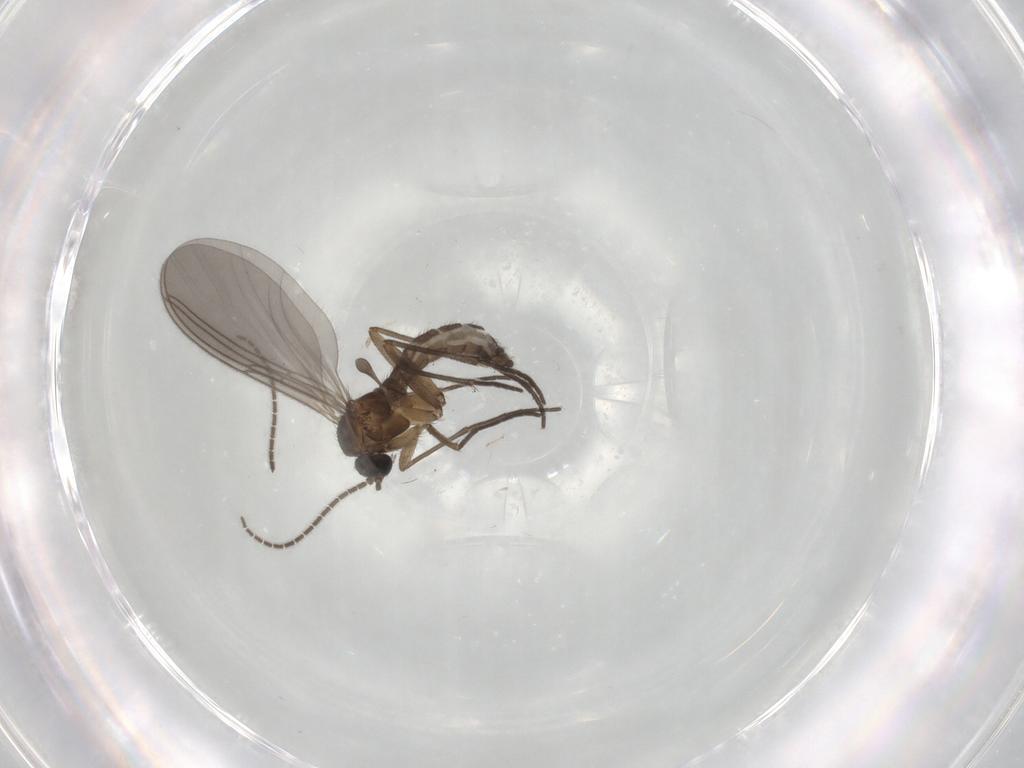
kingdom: Animalia
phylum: Arthropoda
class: Insecta
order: Diptera
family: Sciaridae
